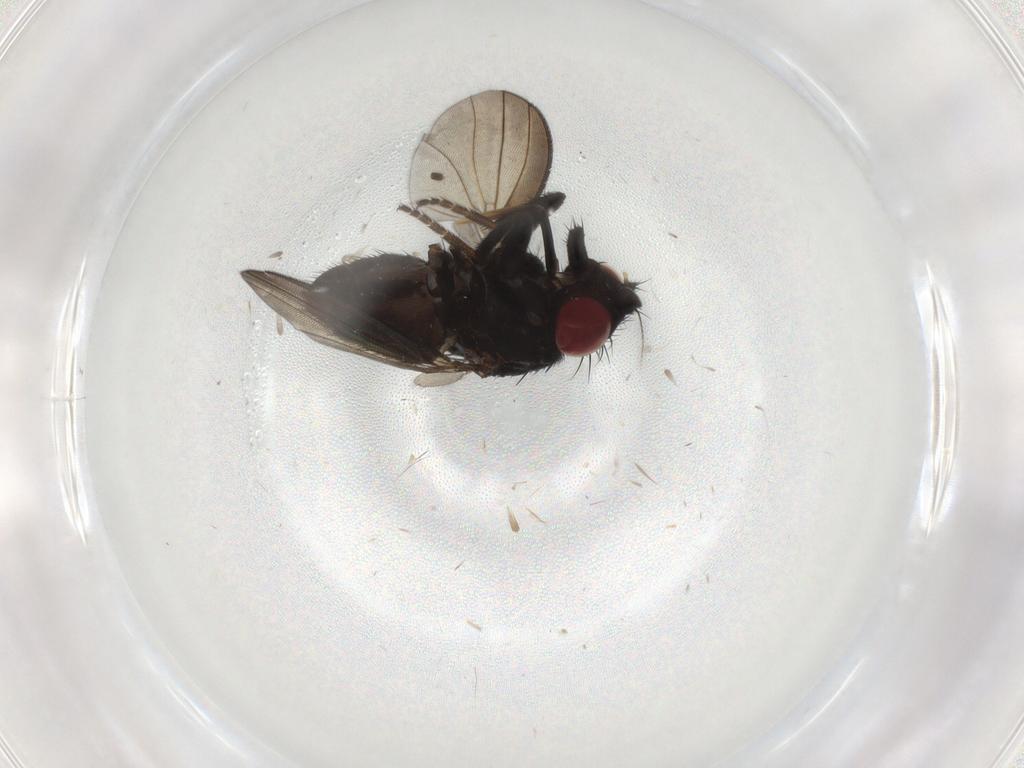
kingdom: Animalia
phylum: Arthropoda
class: Insecta
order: Diptera
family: Milichiidae
